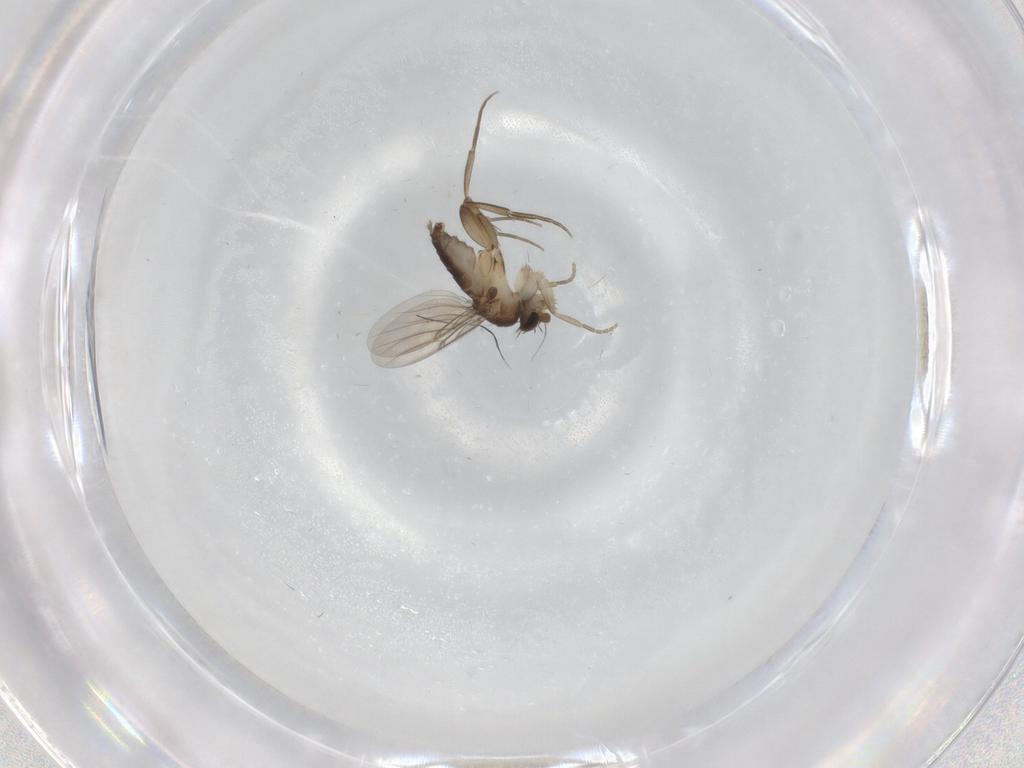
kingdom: Animalia
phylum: Arthropoda
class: Insecta
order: Diptera
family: Phoridae
